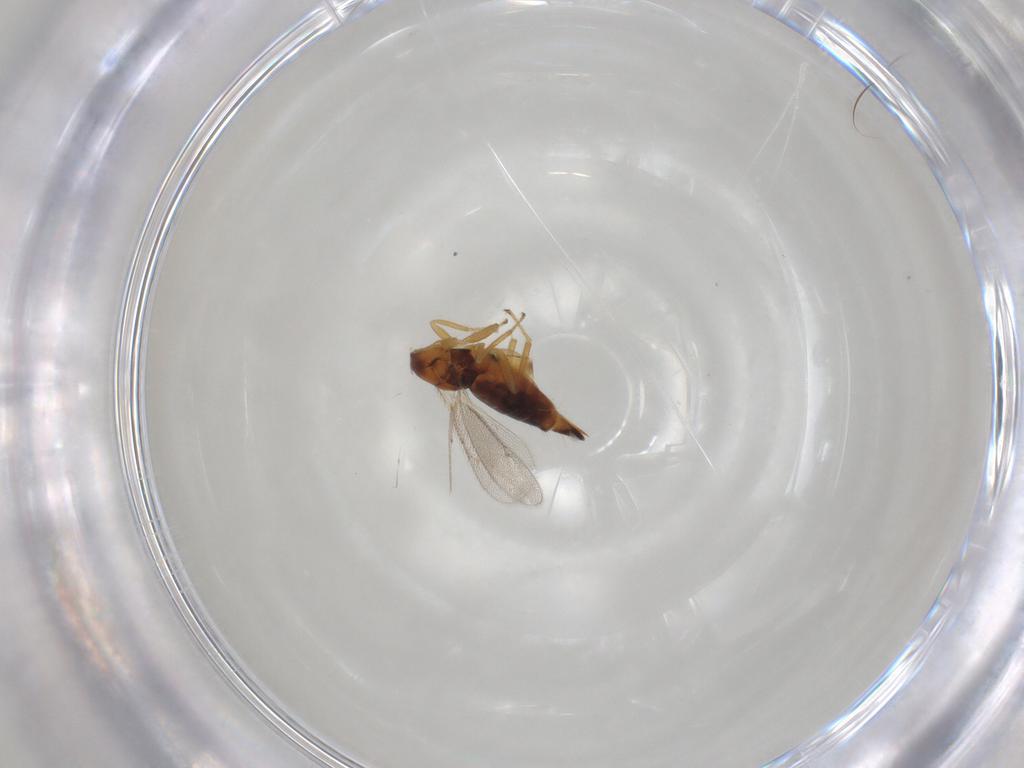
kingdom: Animalia
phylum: Arthropoda
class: Insecta
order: Hymenoptera
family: Eulophidae
